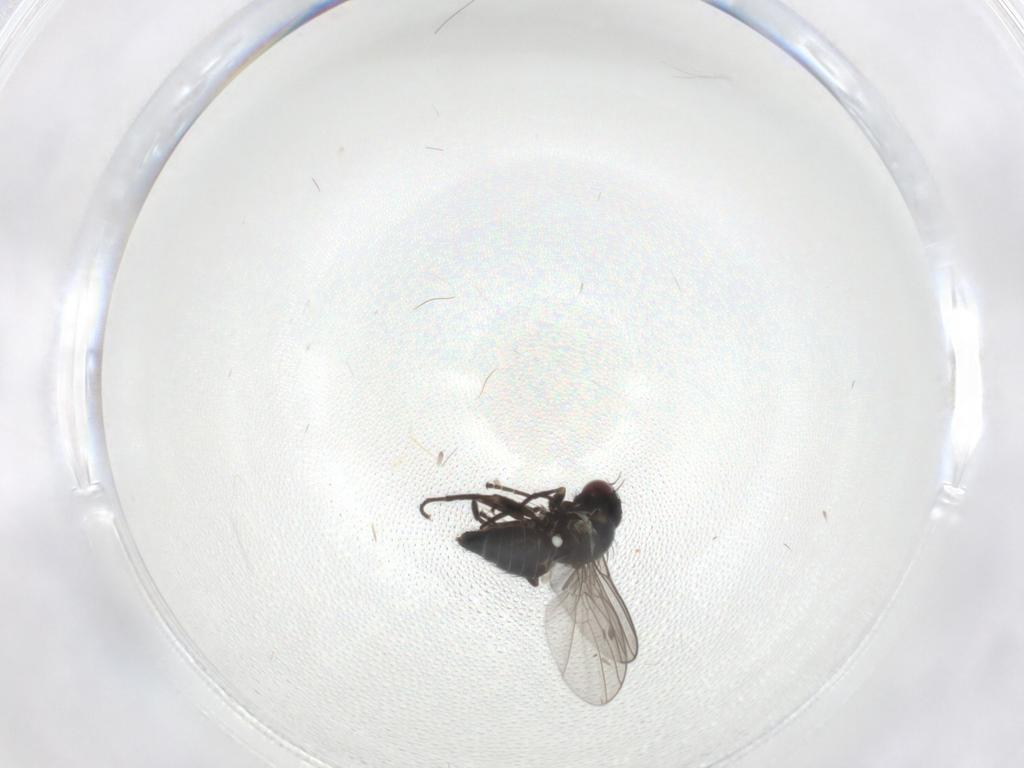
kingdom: Animalia
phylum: Arthropoda
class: Insecta
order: Diptera
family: Agromyzidae
